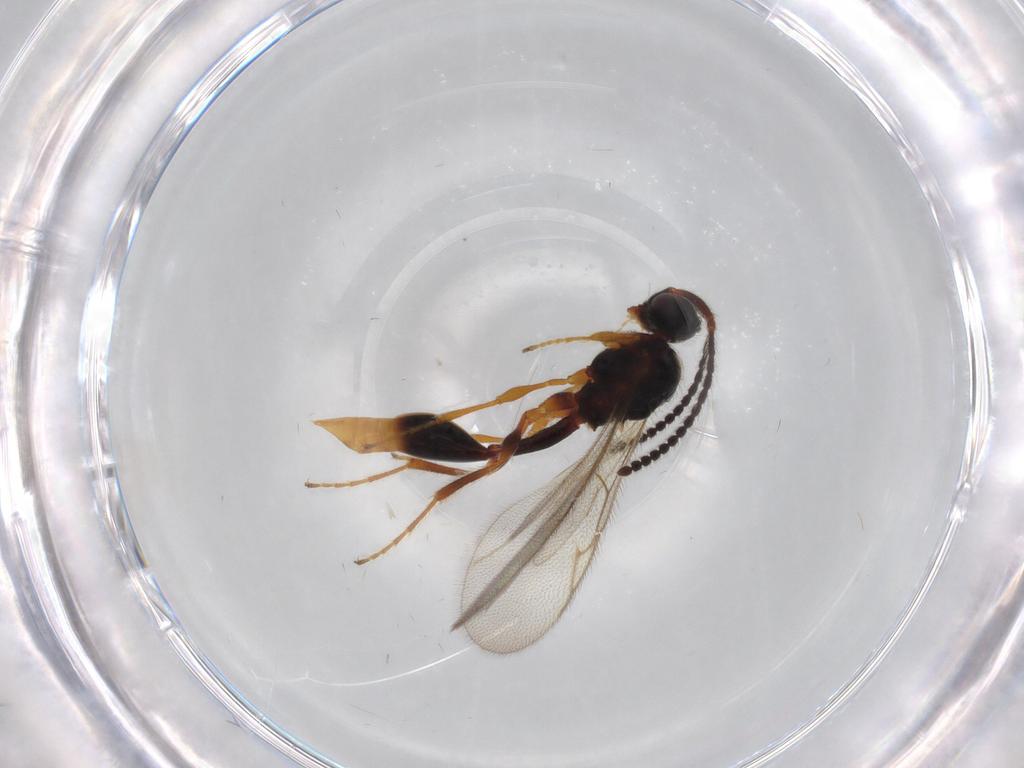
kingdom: Animalia
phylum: Arthropoda
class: Insecta
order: Hymenoptera
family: Diapriidae
